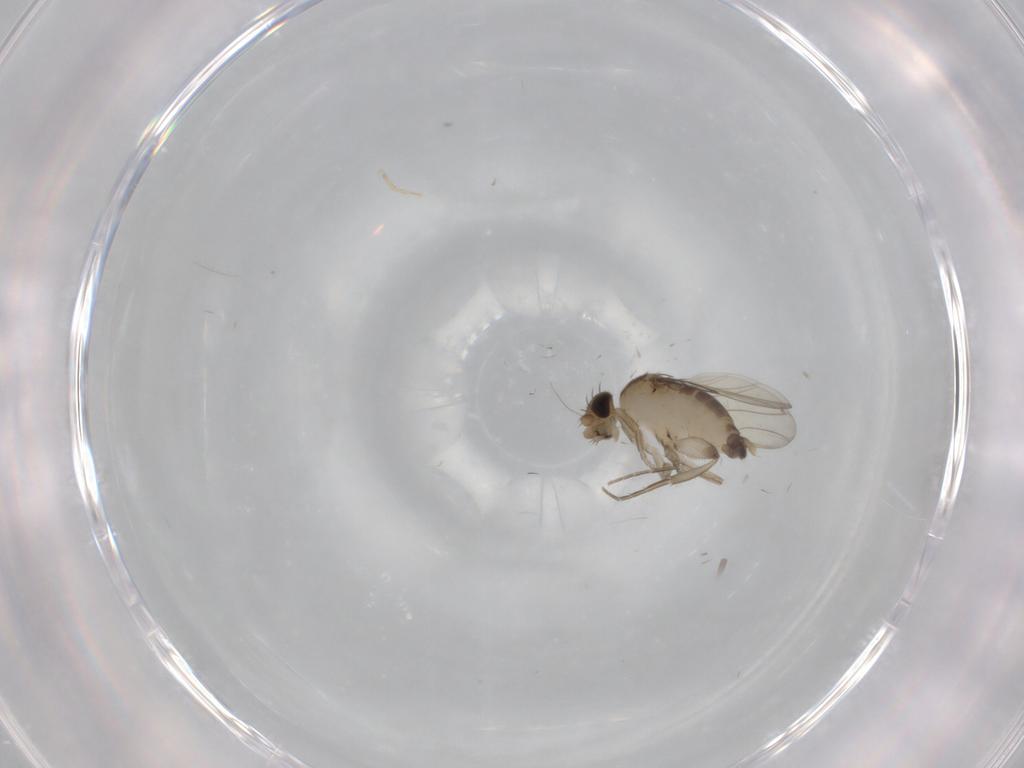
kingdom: Animalia
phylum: Arthropoda
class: Insecta
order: Diptera
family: Phoridae
